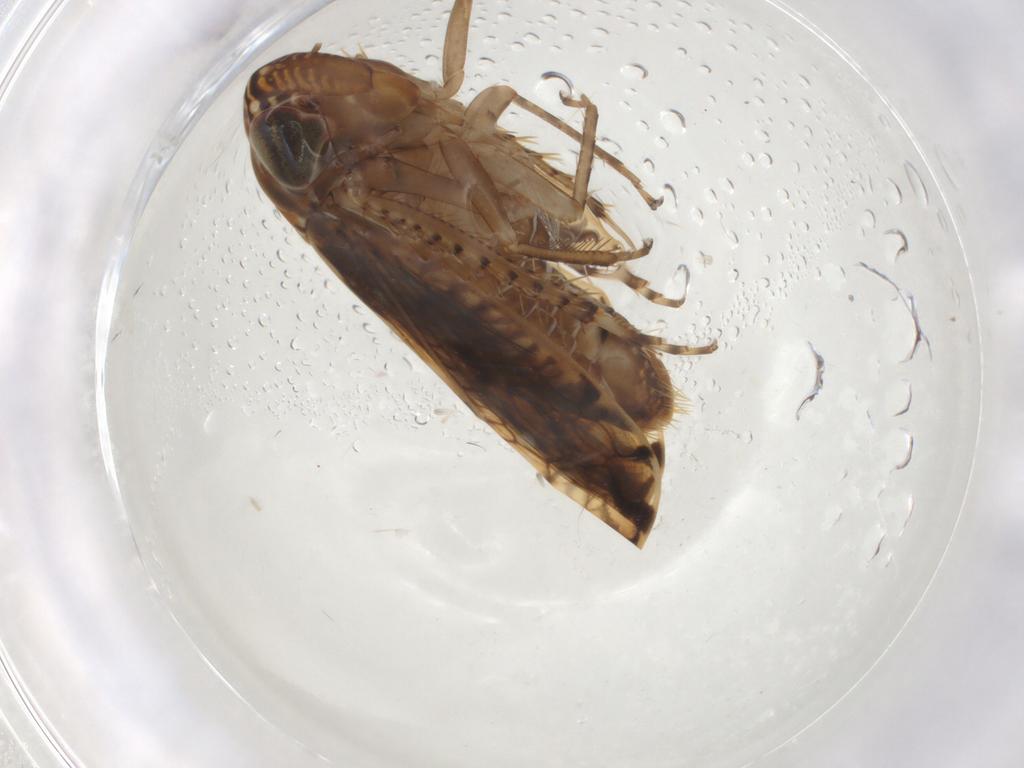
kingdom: Animalia
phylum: Arthropoda
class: Insecta
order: Hemiptera
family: Cicadellidae
